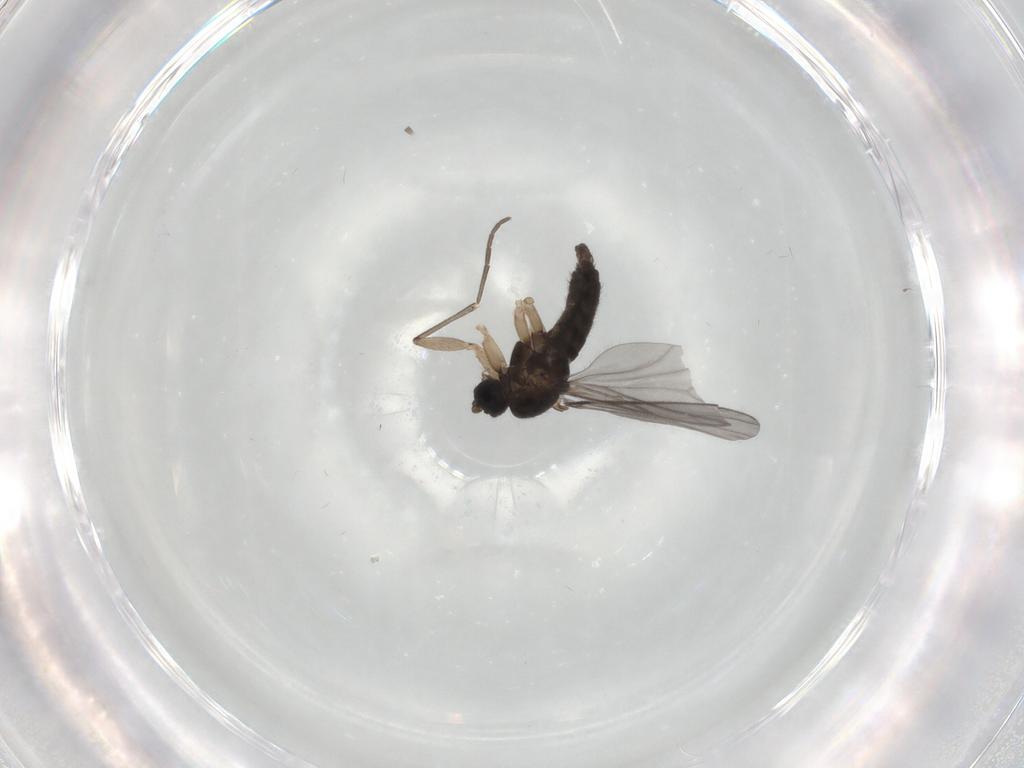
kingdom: Animalia
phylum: Arthropoda
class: Insecta
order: Diptera
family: Sciaridae
